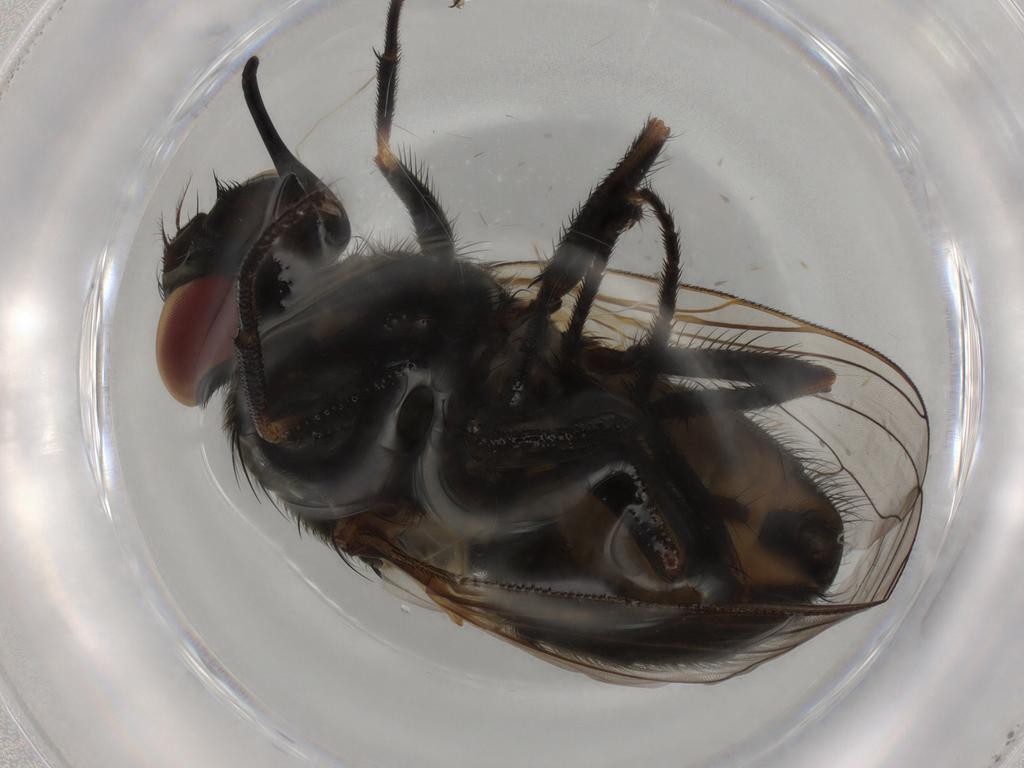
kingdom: Animalia
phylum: Arthropoda
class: Insecta
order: Diptera
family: Muscidae
